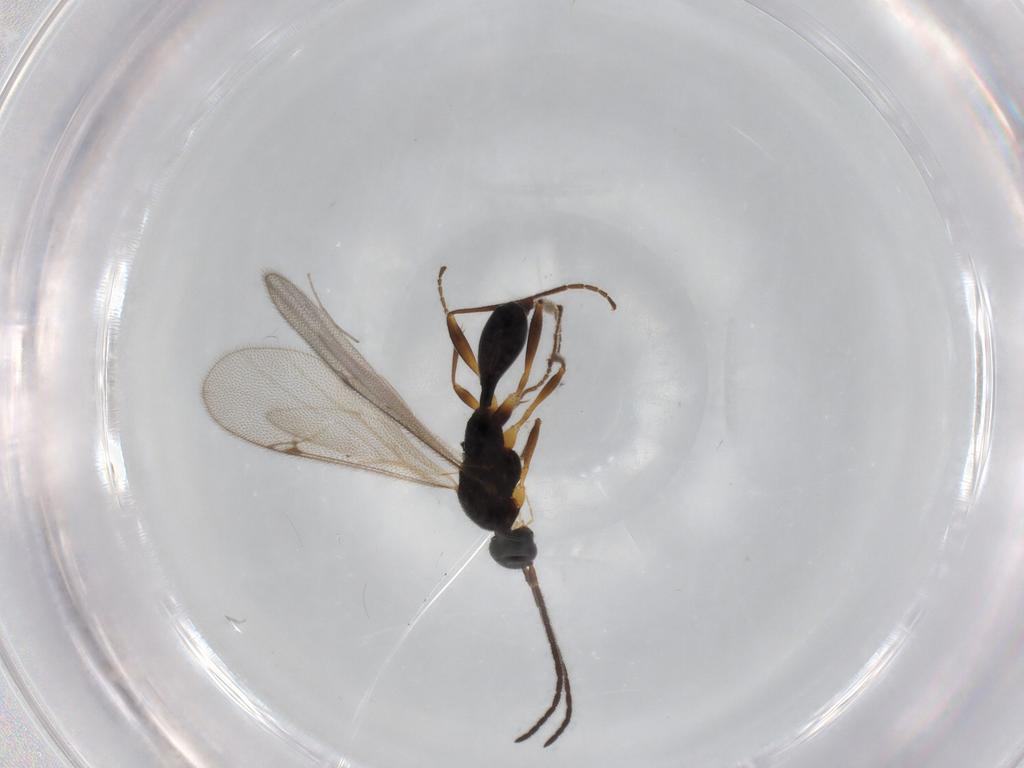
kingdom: Animalia
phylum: Arthropoda
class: Insecta
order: Hymenoptera
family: Proctotrupidae
